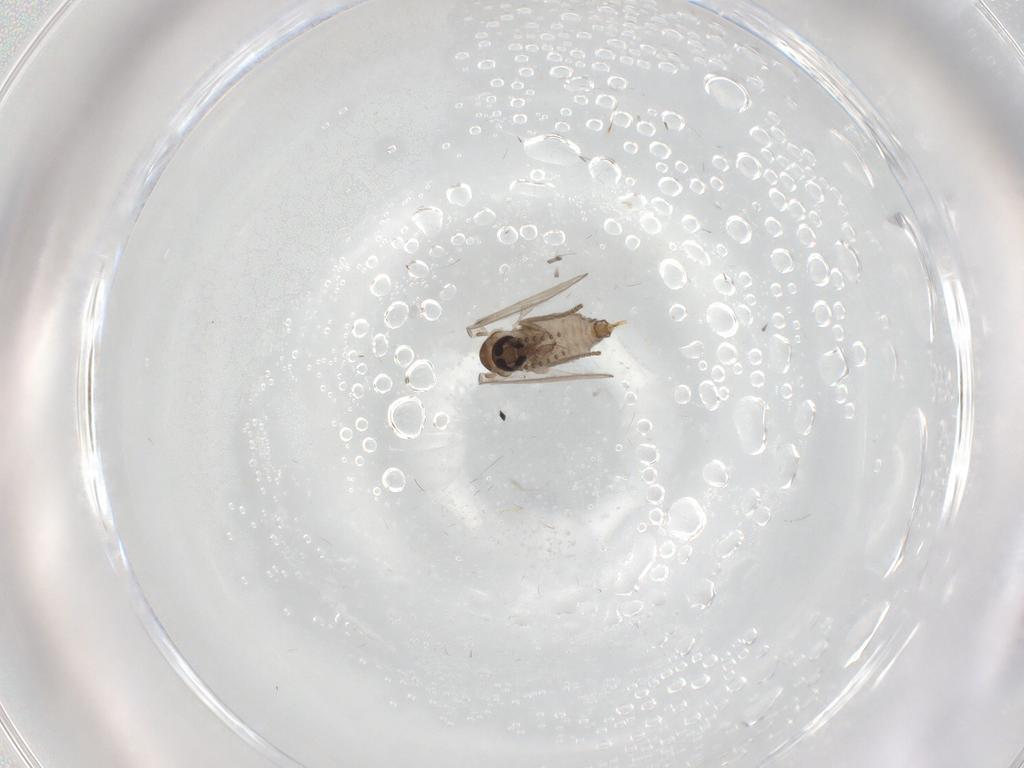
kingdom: Animalia
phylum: Arthropoda
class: Insecta
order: Diptera
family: Psychodidae
